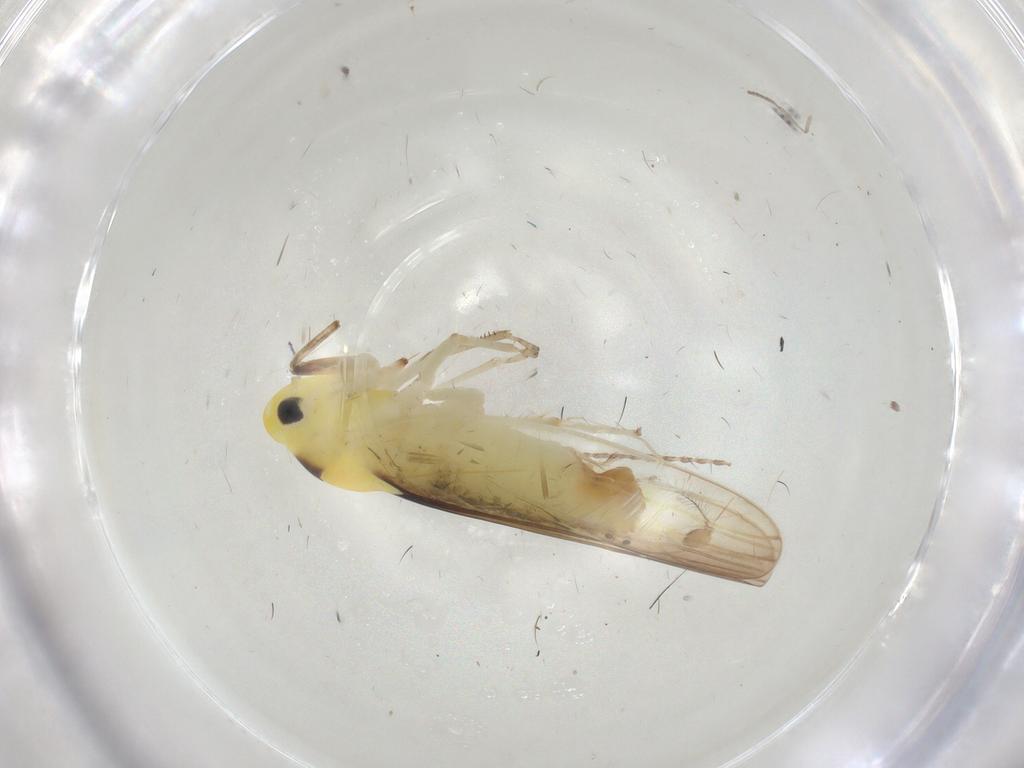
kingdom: Animalia
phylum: Arthropoda
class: Insecta
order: Hemiptera
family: Cicadellidae
